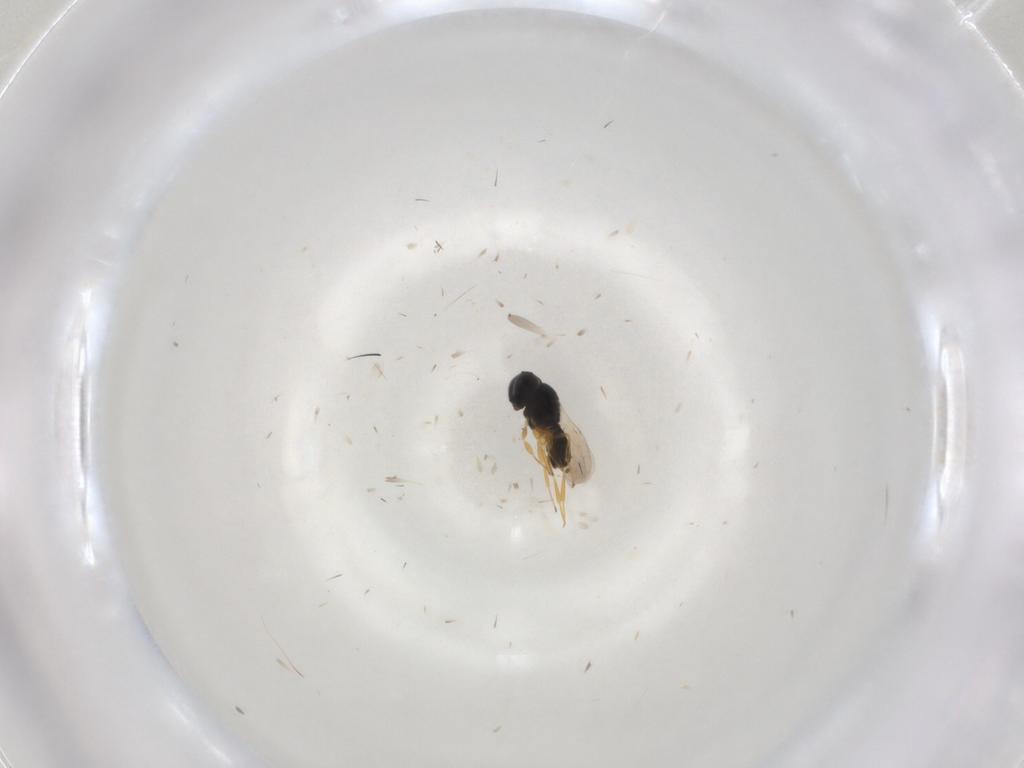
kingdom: Animalia
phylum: Arthropoda
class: Insecta
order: Hymenoptera
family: Scelionidae
